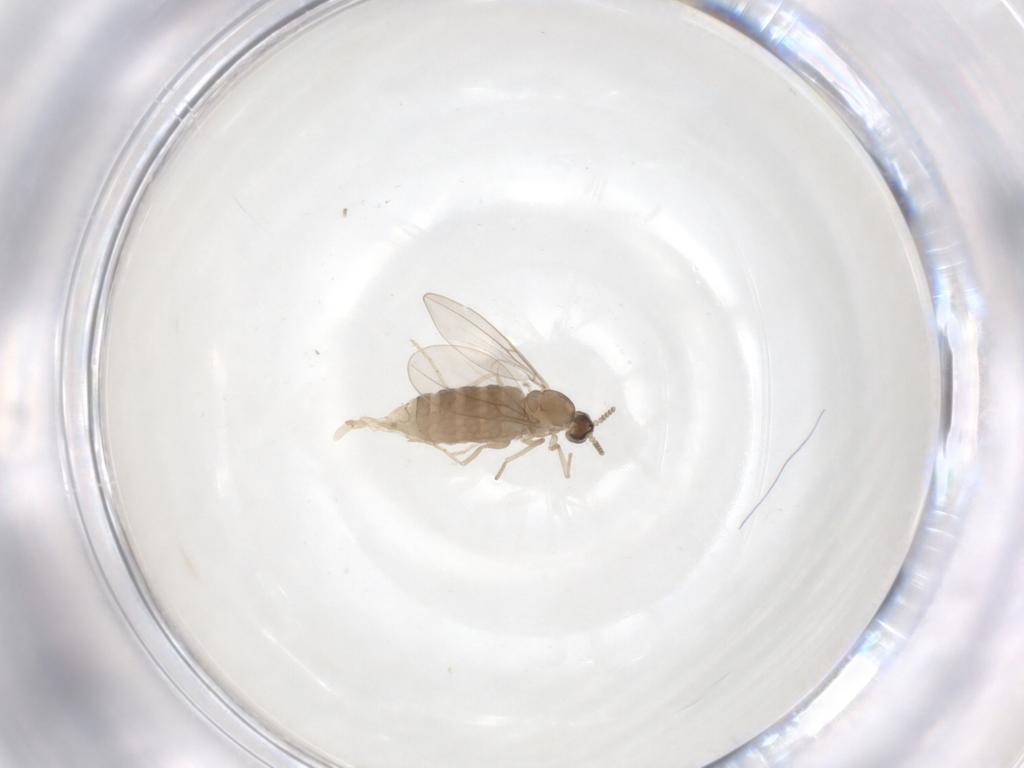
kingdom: Animalia
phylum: Arthropoda
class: Insecta
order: Diptera
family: Cecidomyiidae
